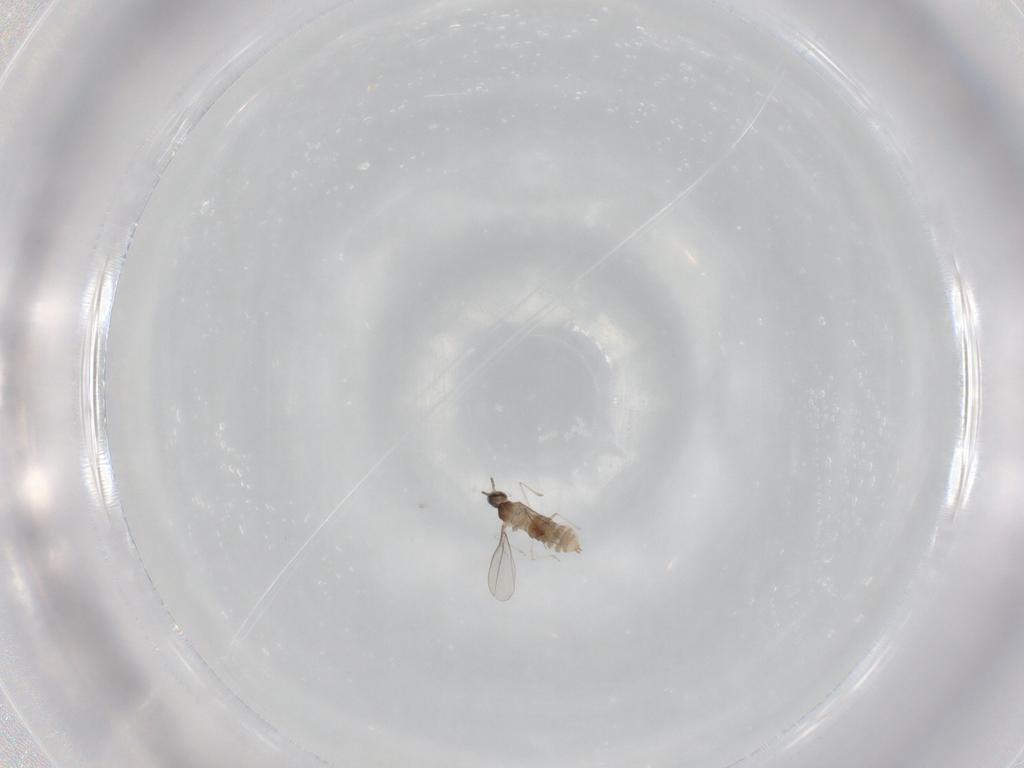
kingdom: Animalia
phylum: Arthropoda
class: Insecta
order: Diptera
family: Cecidomyiidae
